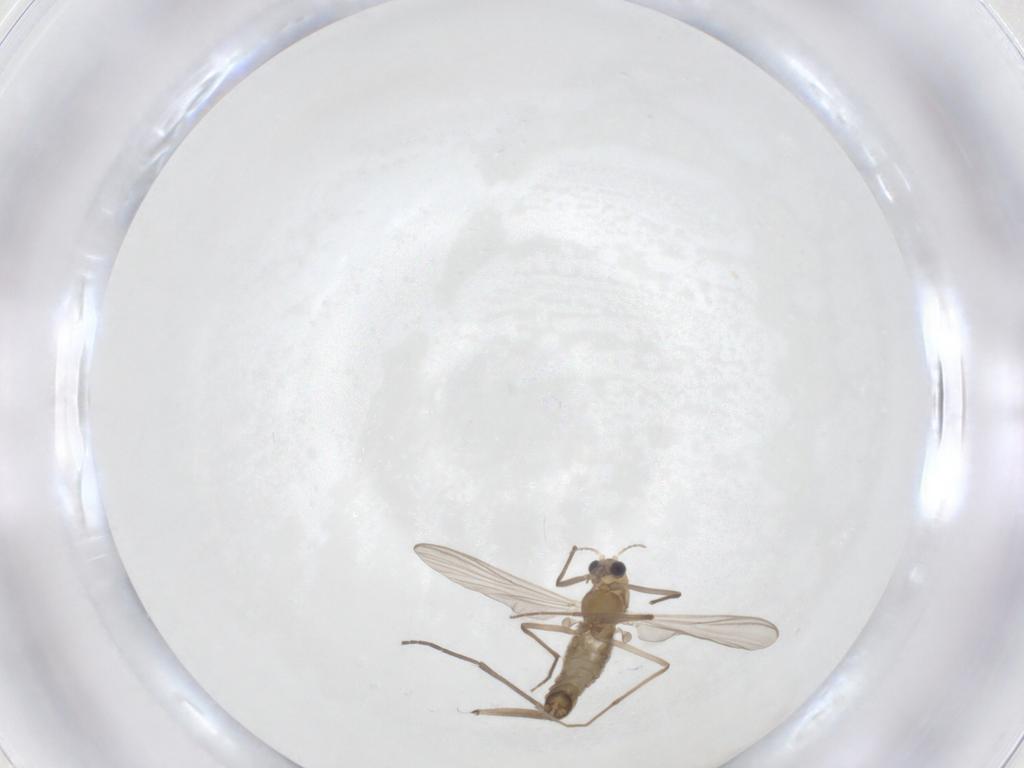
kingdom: Animalia
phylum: Arthropoda
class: Insecta
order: Diptera
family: Sciaridae
